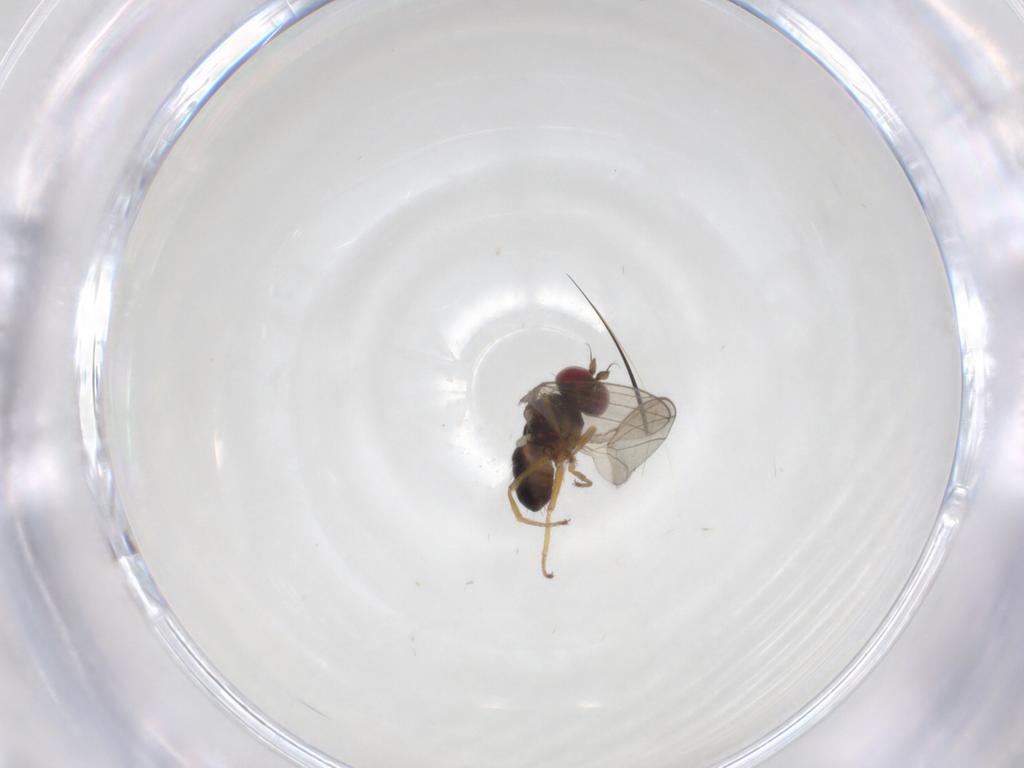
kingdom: Animalia
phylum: Arthropoda
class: Insecta
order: Diptera
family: Ephydridae
